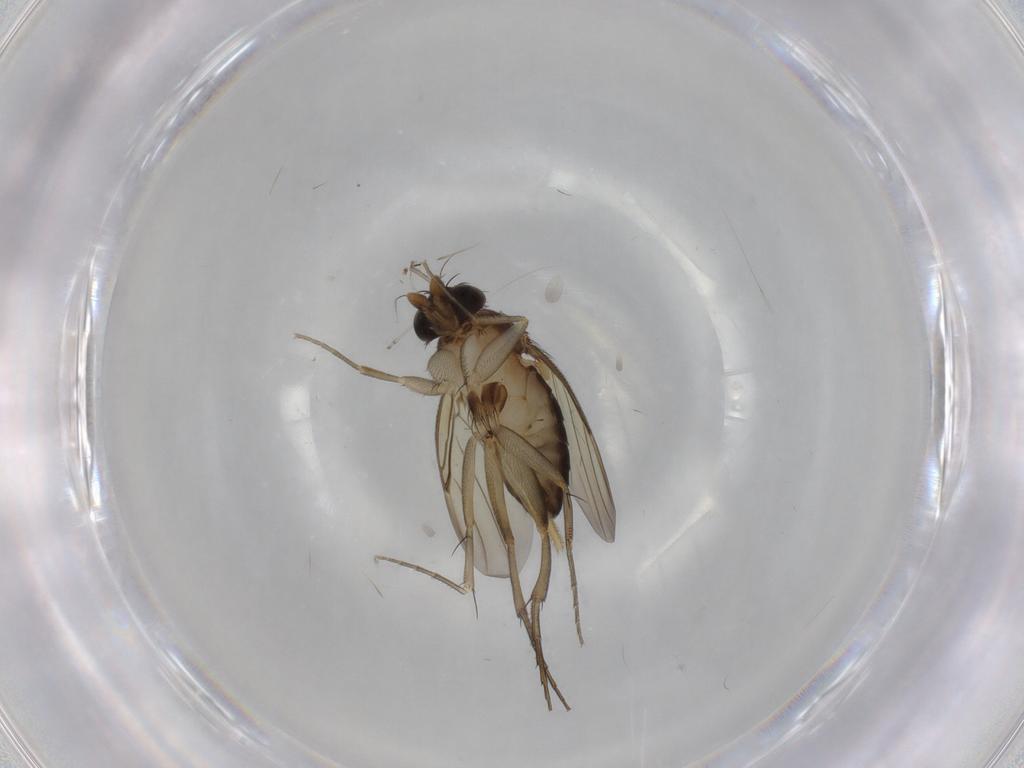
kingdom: Animalia
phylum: Arthropoda
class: Insecta
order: Diptera
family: Phoridae
